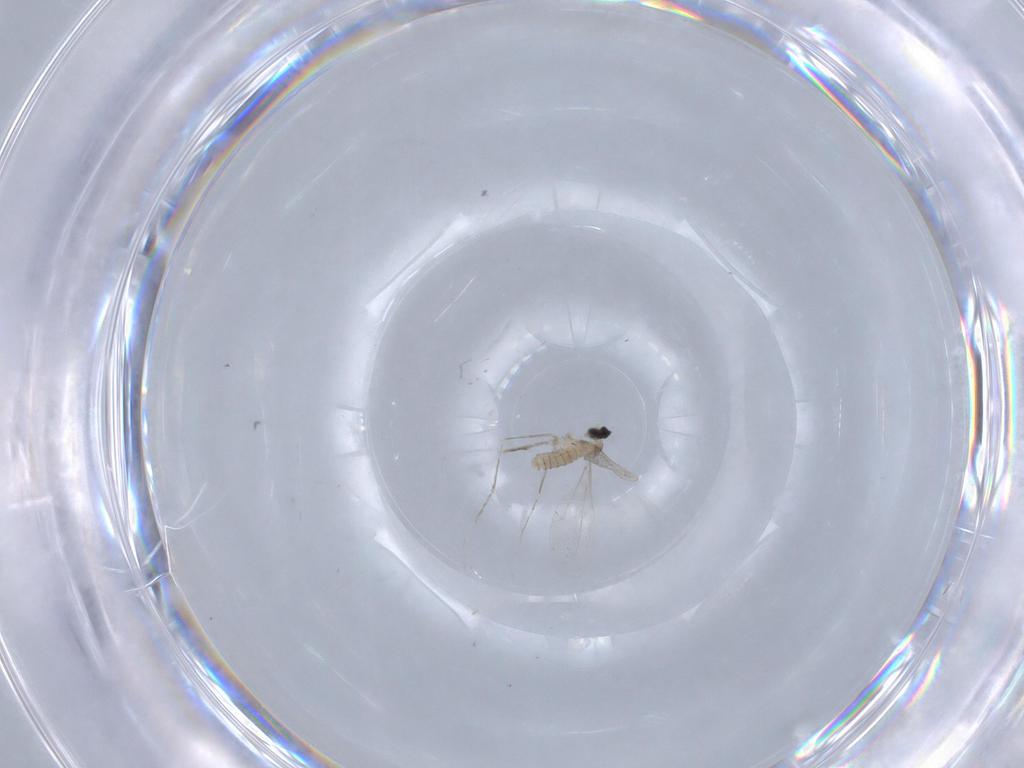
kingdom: Animalia
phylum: Arthropoda
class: Insecta
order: Diptera
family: Cecidomyiidae
